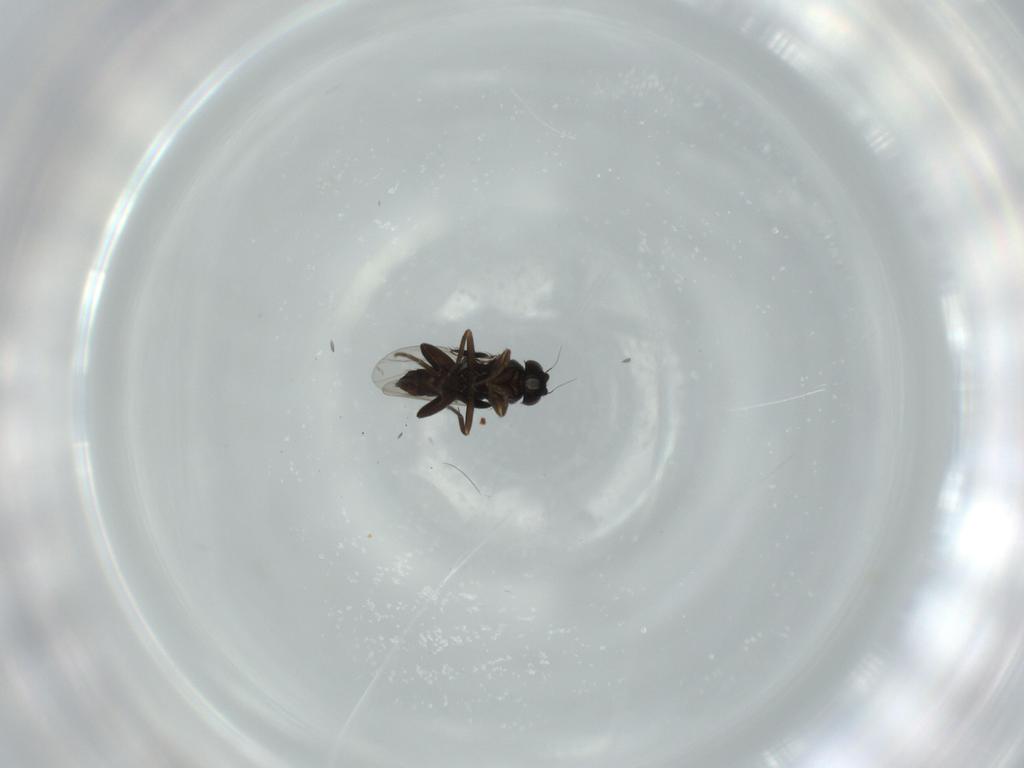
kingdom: Animalia
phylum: Arthropoda
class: Insecta
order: Diptera
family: Phoridae
